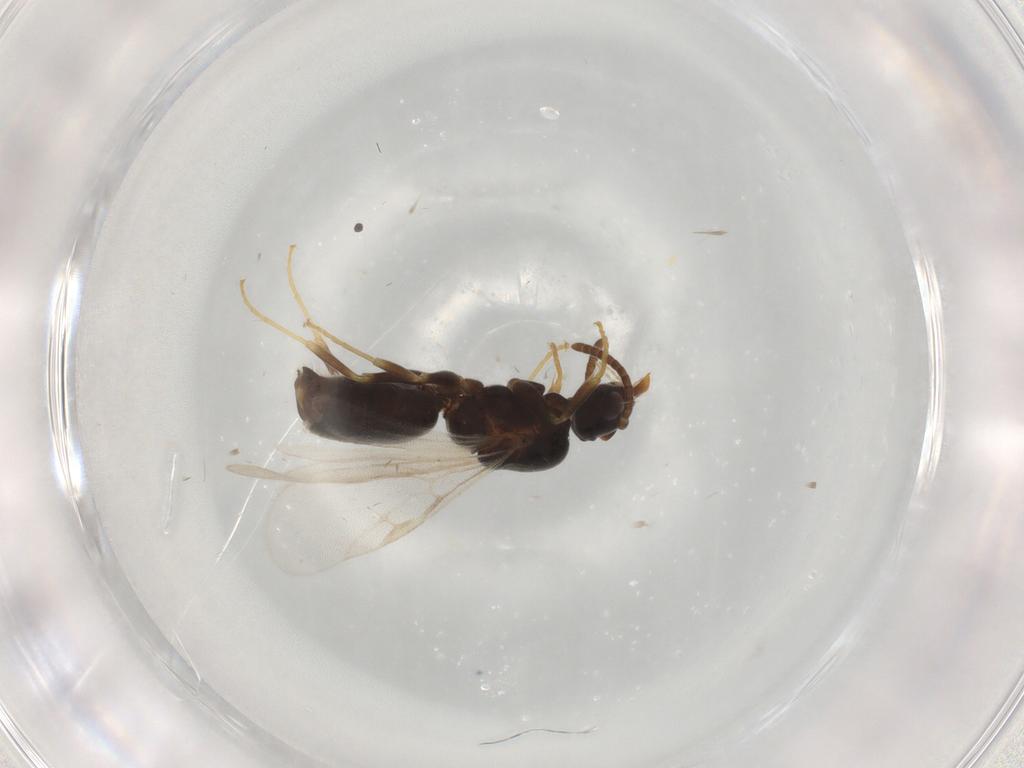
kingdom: Animalia
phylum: Arthropoda
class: Insecta
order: Hymenoptera
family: Formicidae
